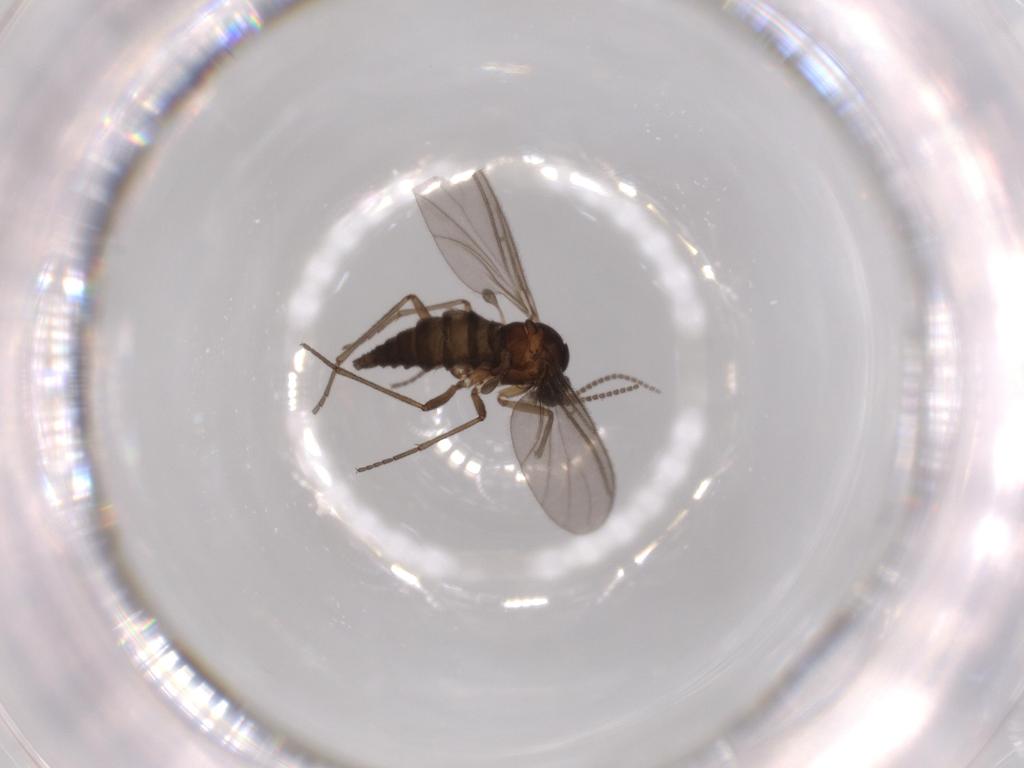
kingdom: Animalia
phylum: Arthropoda
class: Insecta
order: Diptera
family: Sciaridae
